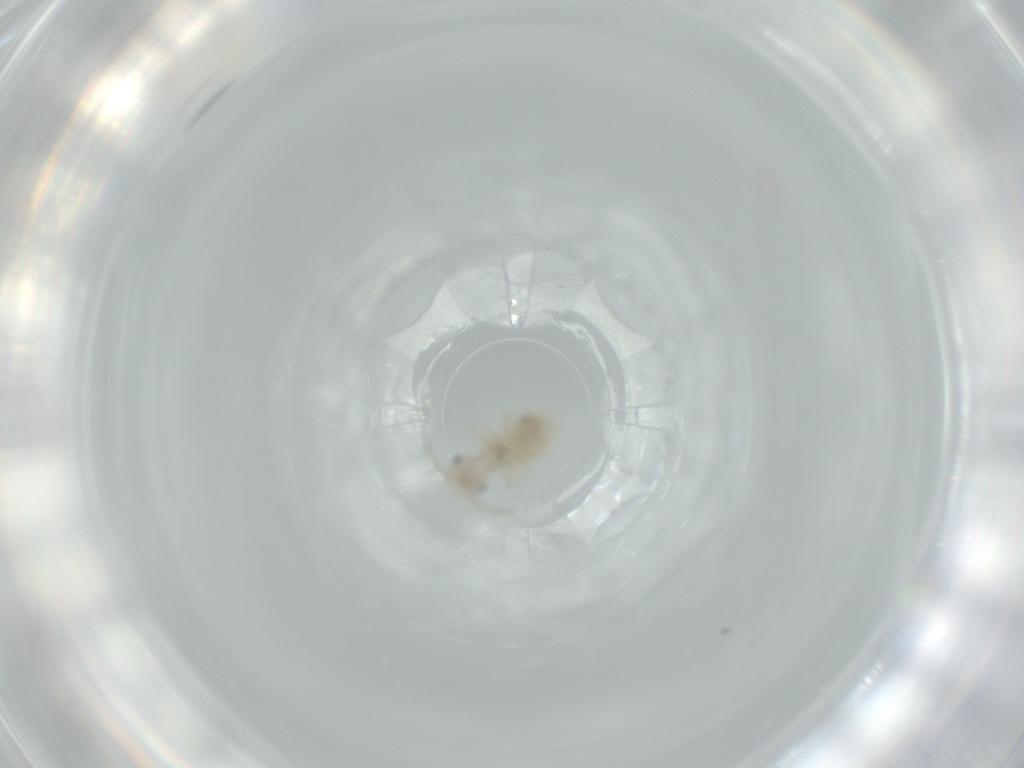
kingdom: Animalia
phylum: Arthropoda
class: Insecta
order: Psocodea
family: Amphipsocidae
